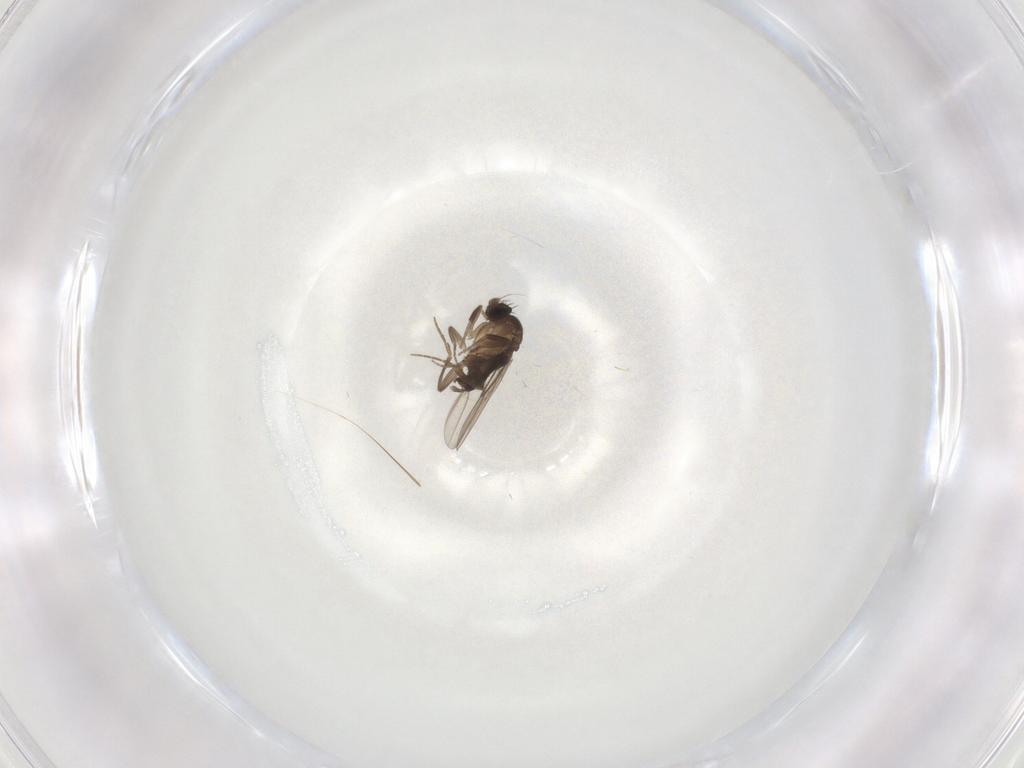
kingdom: Animalia
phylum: Arthropoda
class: Insecta
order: Diptera
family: Phoridae
